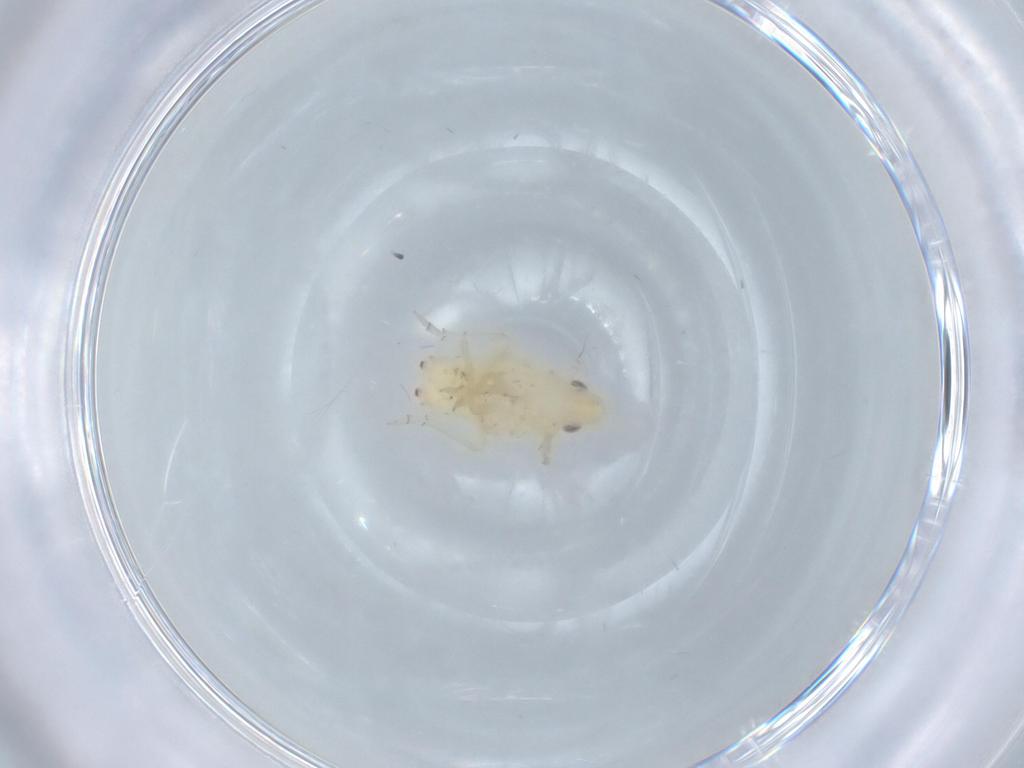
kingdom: Animalia
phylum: Arthropoda
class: Insecta
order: Hemiptera
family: Flatidae
